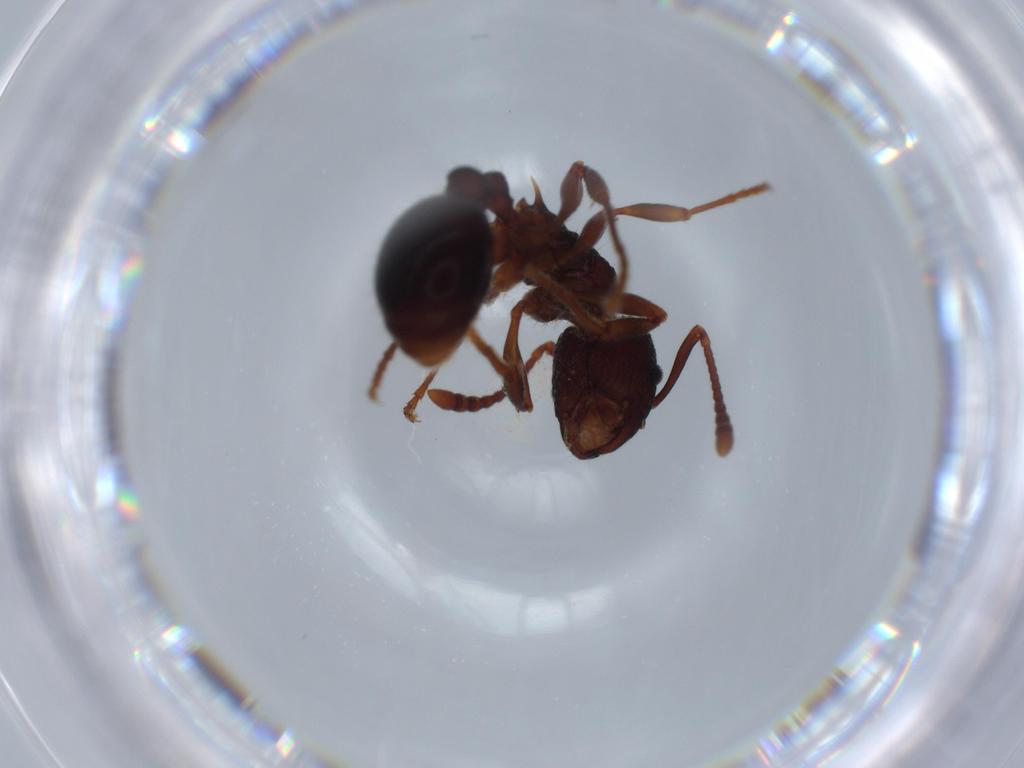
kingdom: Animalia
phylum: Arthropoda
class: Insecta
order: Hymenoptera
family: Formicidae
